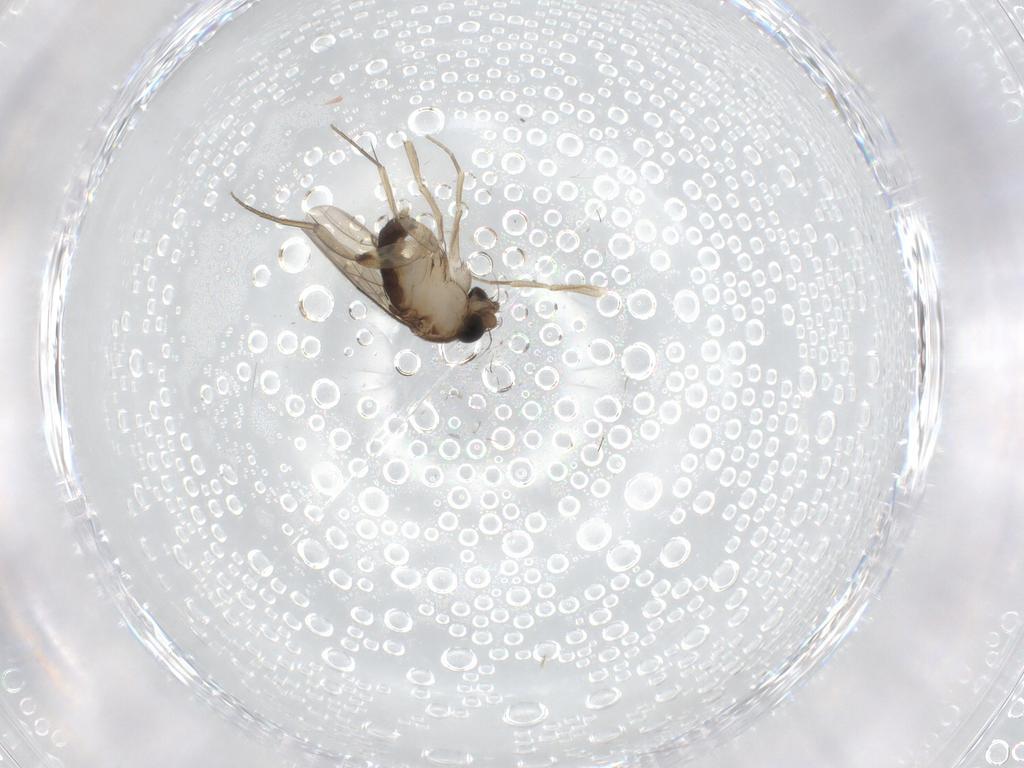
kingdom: Animalia
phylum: Arthropoda
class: Insecta
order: Diptera
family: Phoridae
